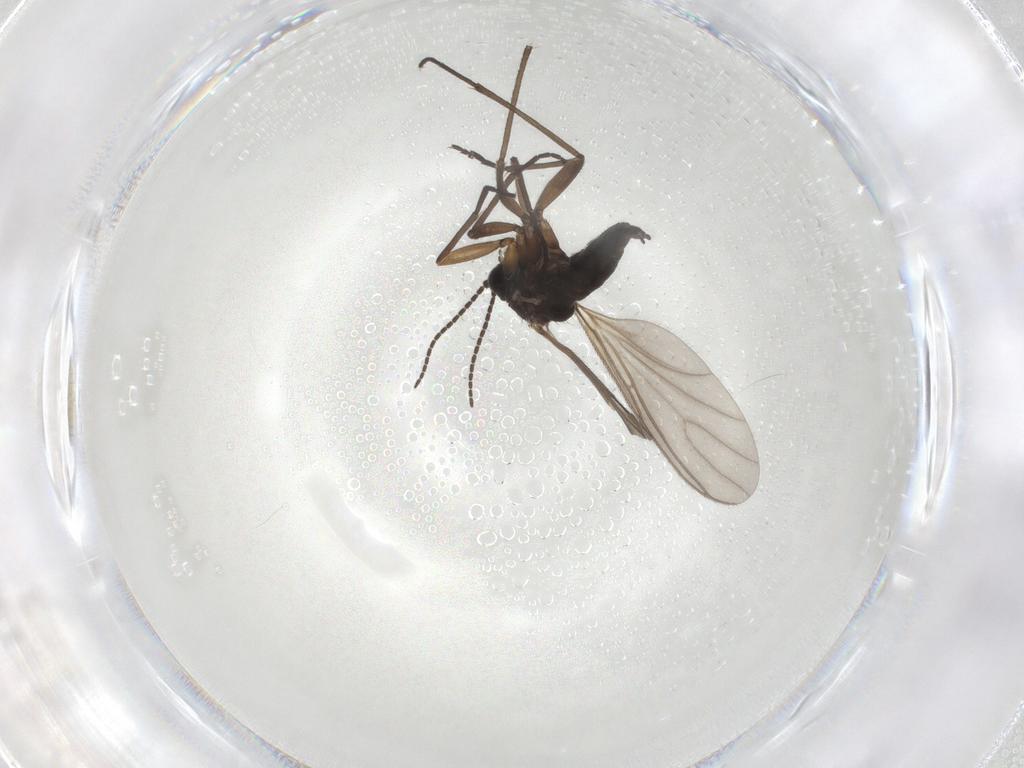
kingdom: Animalia
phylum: Arthropoda
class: Insecta
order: Diptera
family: Sciaridae
